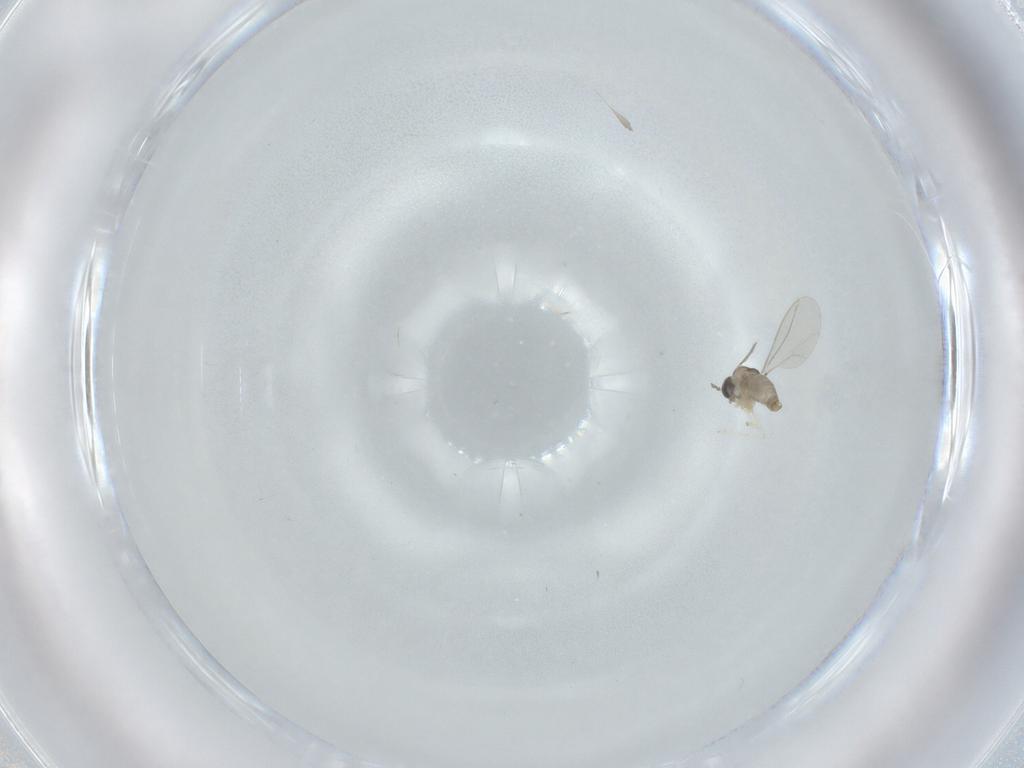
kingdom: Animalia
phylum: Arthropoda
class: Insecta
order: Diptera
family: Cecidomyiidae
